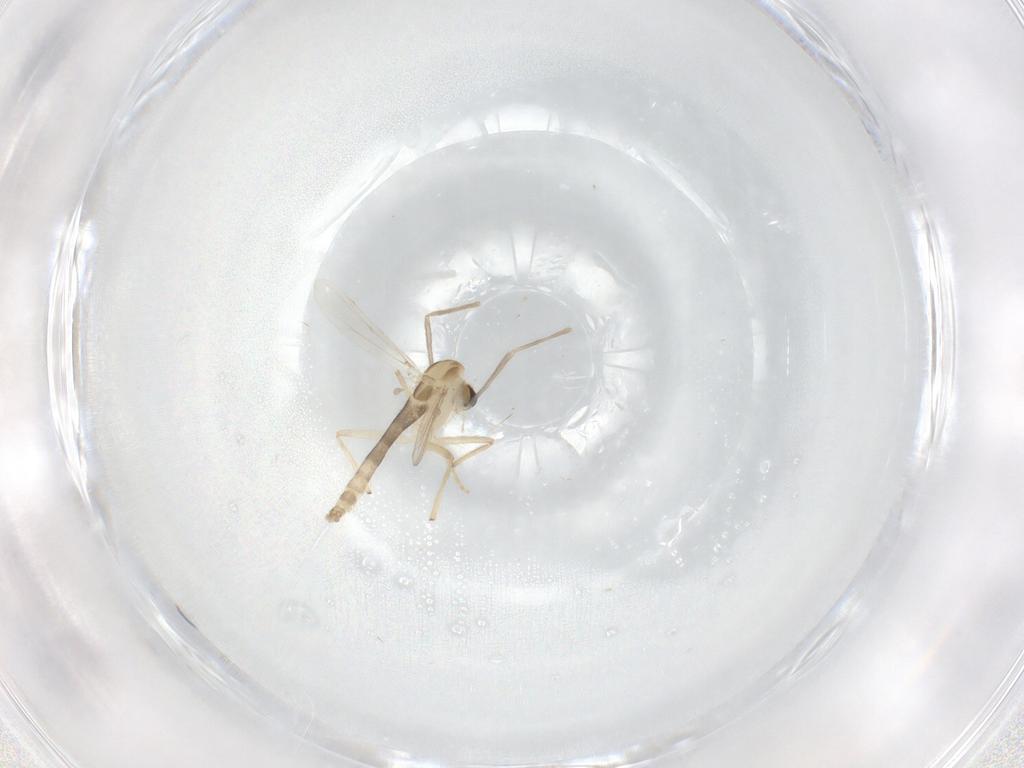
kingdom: Animalia
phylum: Arthropoda
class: Insecta
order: Diptera
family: Chironomidae
